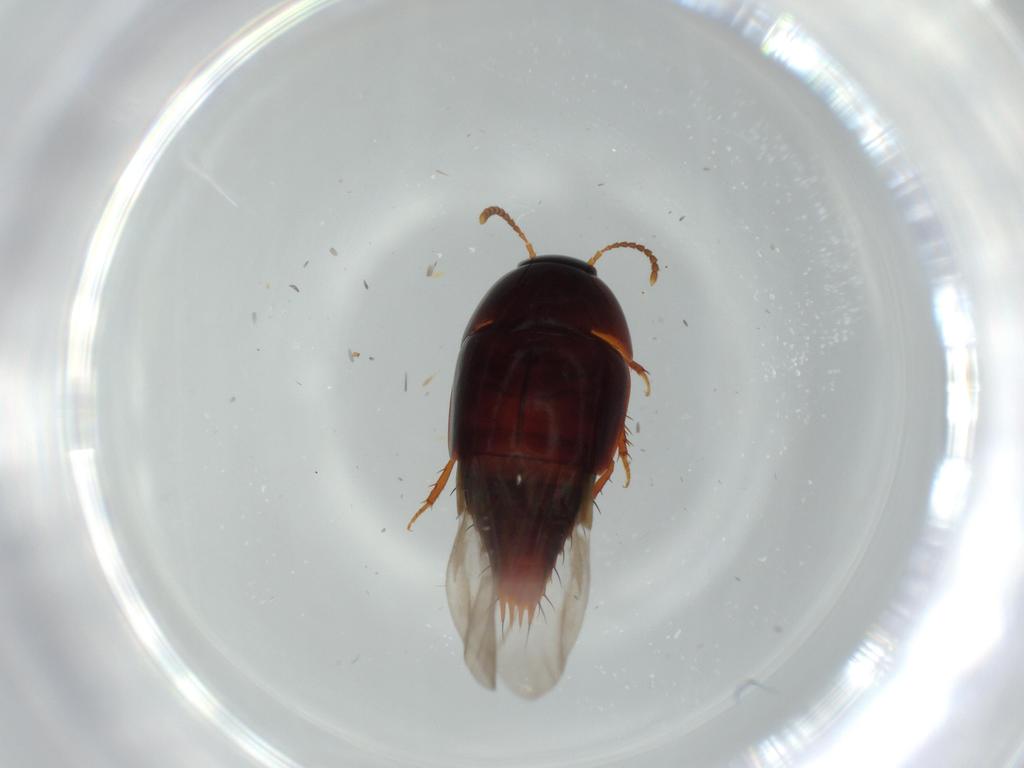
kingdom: Animalia
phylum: Arthropoda
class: Insecta
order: Coleoptera
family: Staphylinidae
